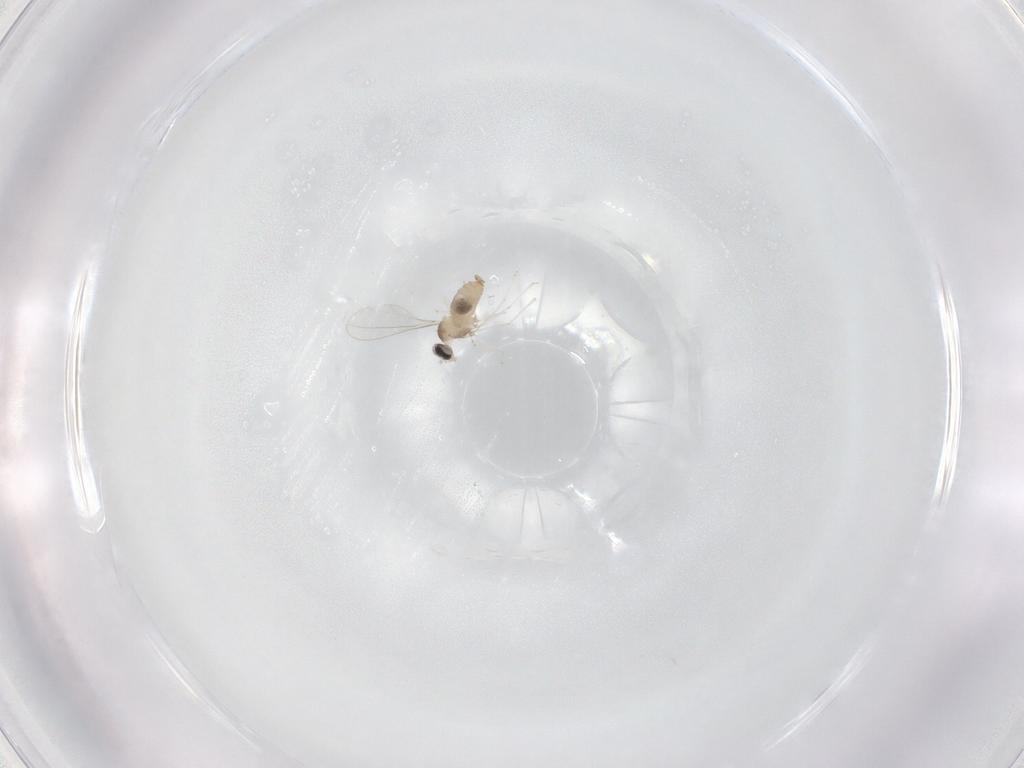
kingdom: Animalia
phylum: Arthropoda
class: Insecta
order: Diptera
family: Cecidomyiidae
